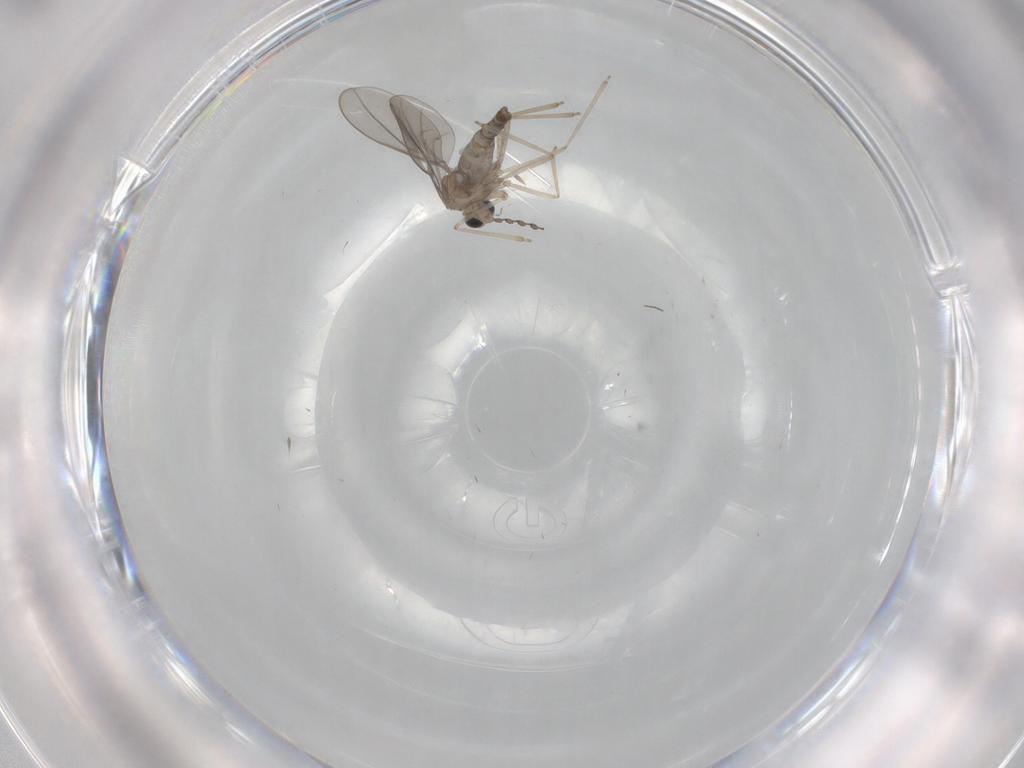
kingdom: Animalia
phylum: Arthropoda
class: Insecta
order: Diptera
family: Cecidomyiidae
